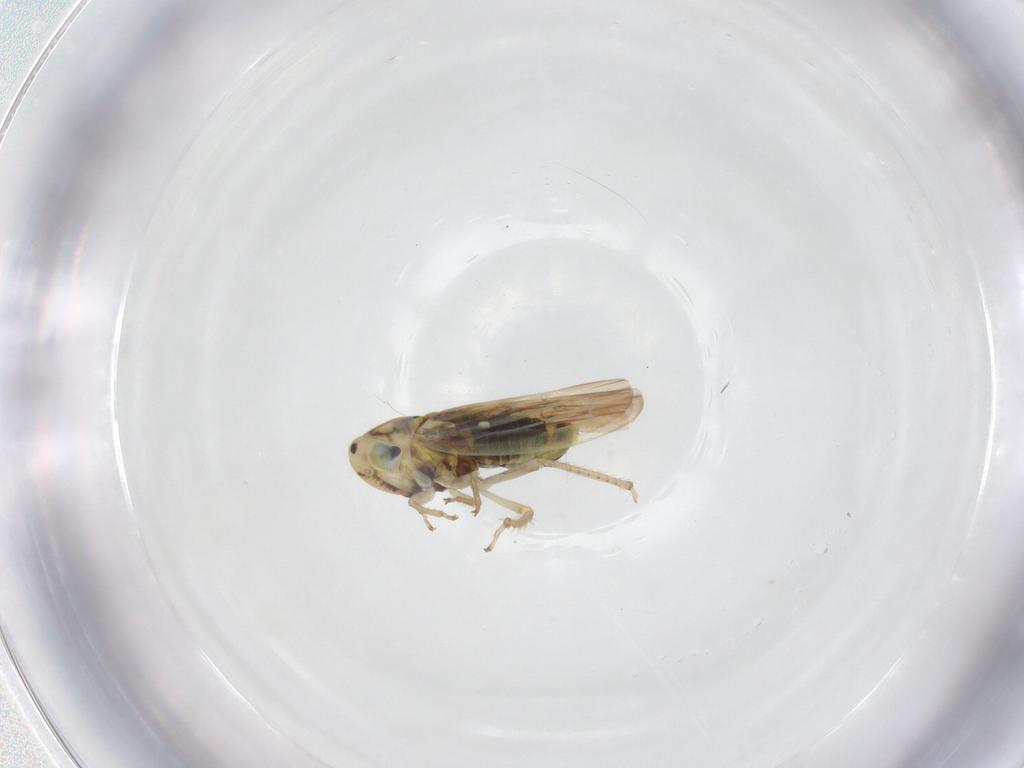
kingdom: Animalia
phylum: Arthropoda
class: Insecta
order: Hemiptera
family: Cicadellidae
